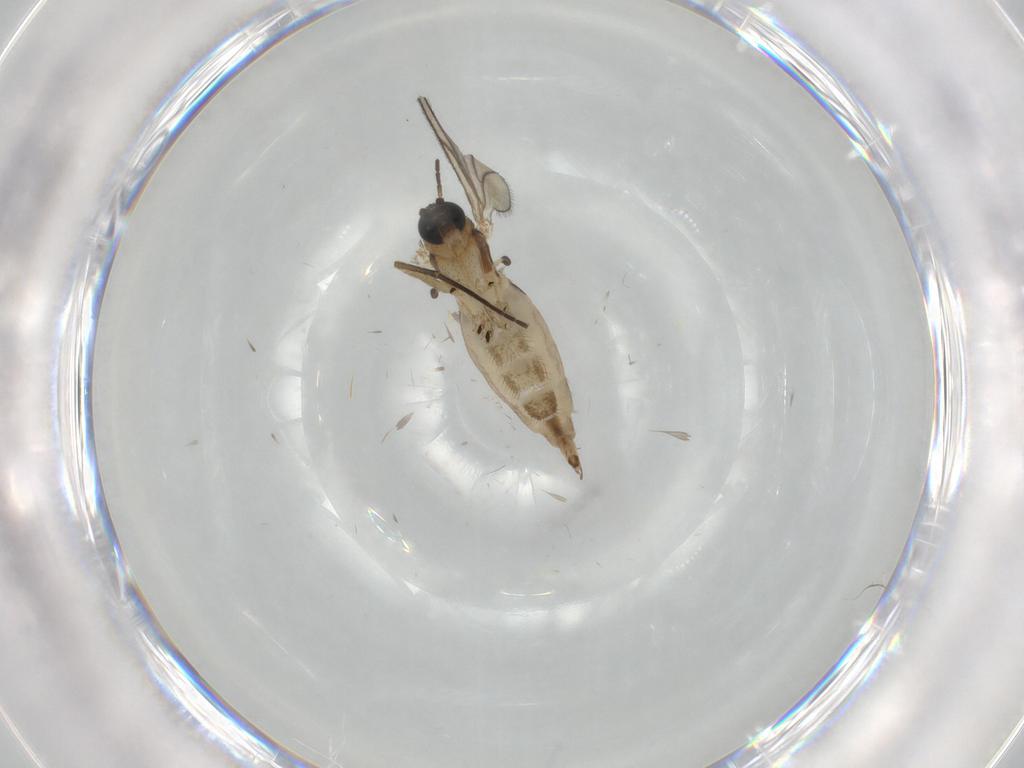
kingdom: Animalia
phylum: Arthropoda
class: Insecta
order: Diptera
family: Sciaridae
